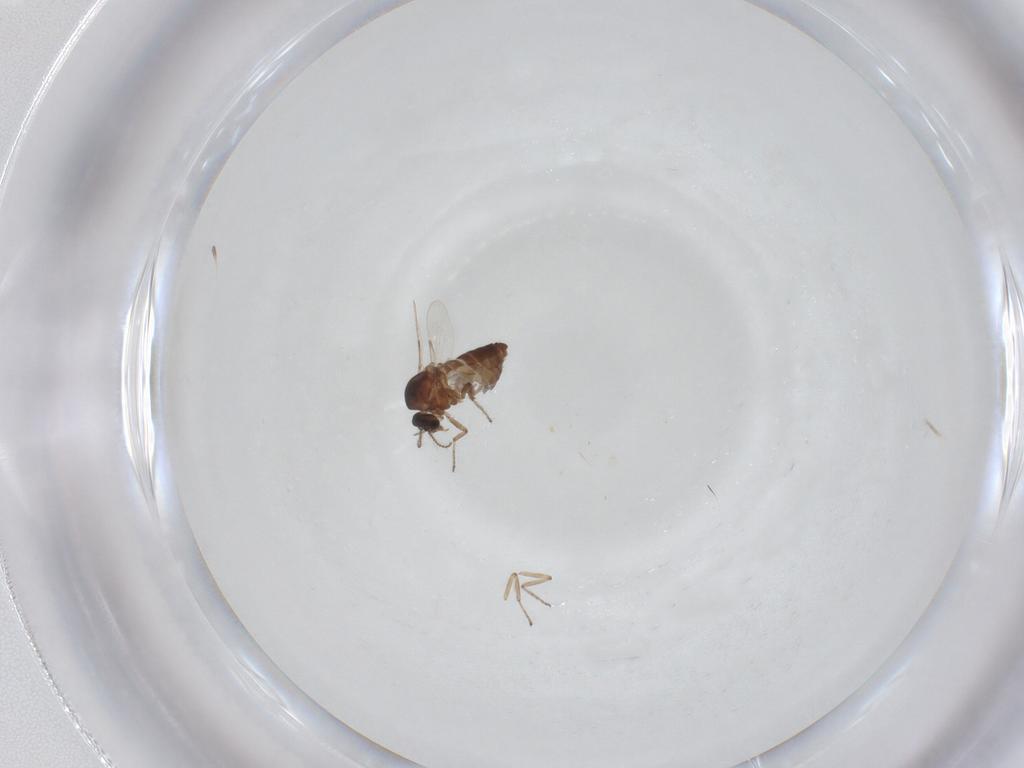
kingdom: Animalia
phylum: Arthropoda
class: Insecta
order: Diptera
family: Ceratopogonidae
